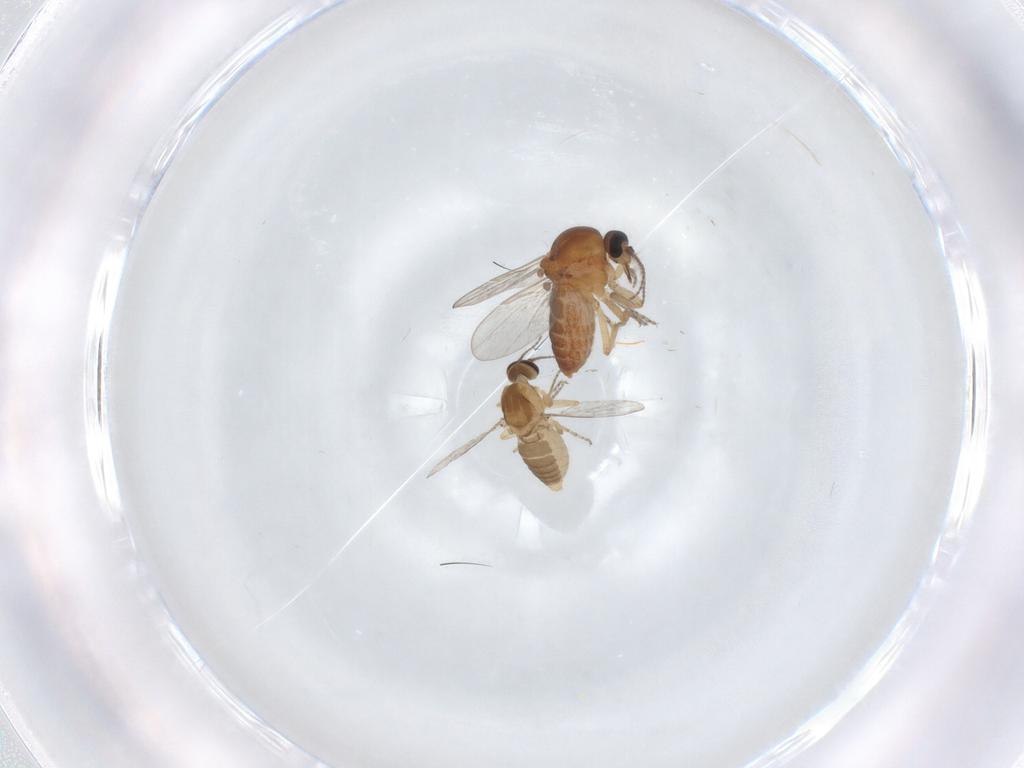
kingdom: Animalia
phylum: Arthropoda
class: Insecta
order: Diptera
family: Ceratopogonidae
